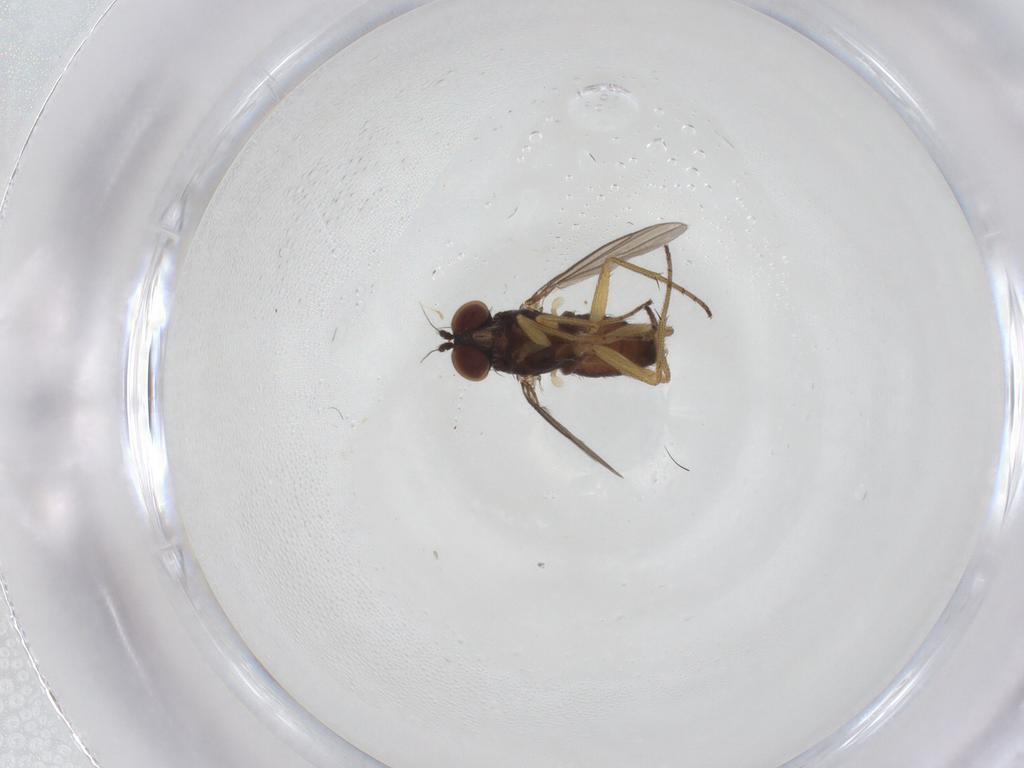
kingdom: Animalia
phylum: Arthropoda
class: Insecta
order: Diptera
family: Cecidomyiidae
